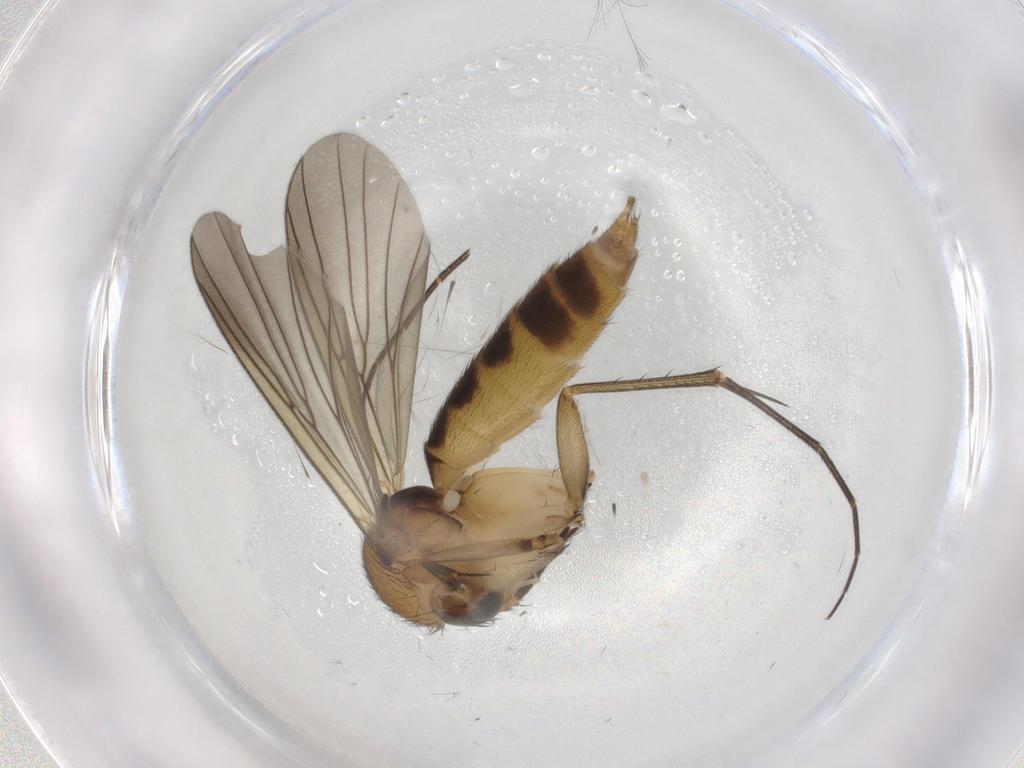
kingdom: Animalia
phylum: Arthropoda
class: Insecta
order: Diptera
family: Mycetophilidae
